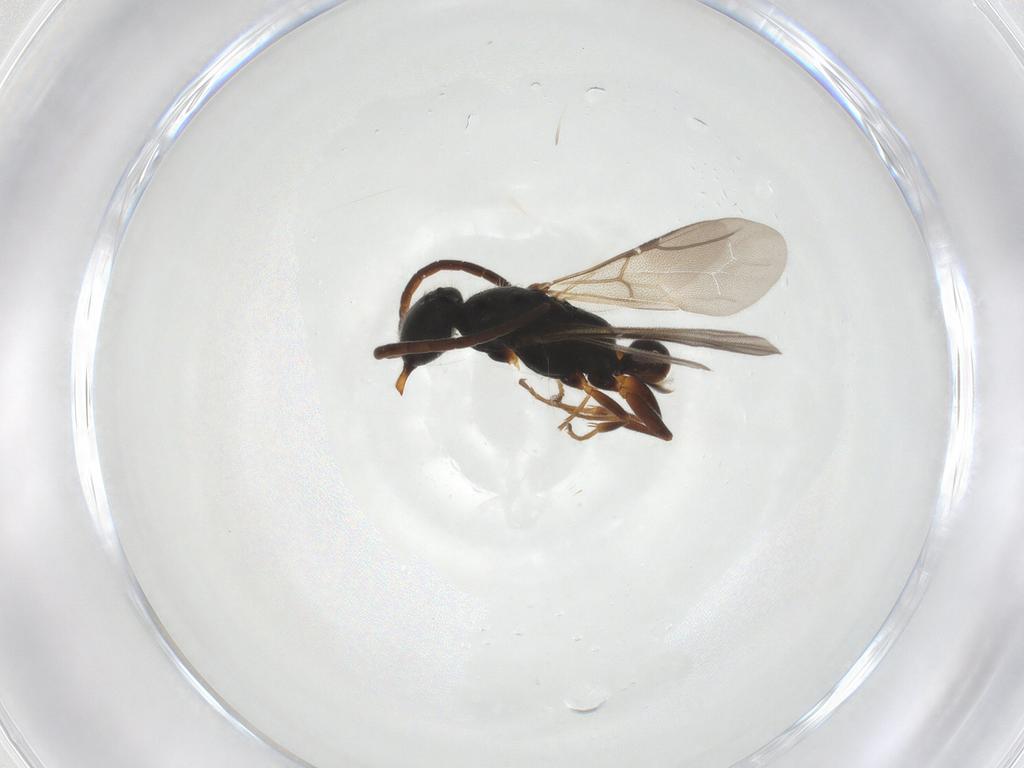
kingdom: Animalia
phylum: Arthropoda
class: Insecta
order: Hymenoptera
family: Bethylidae
